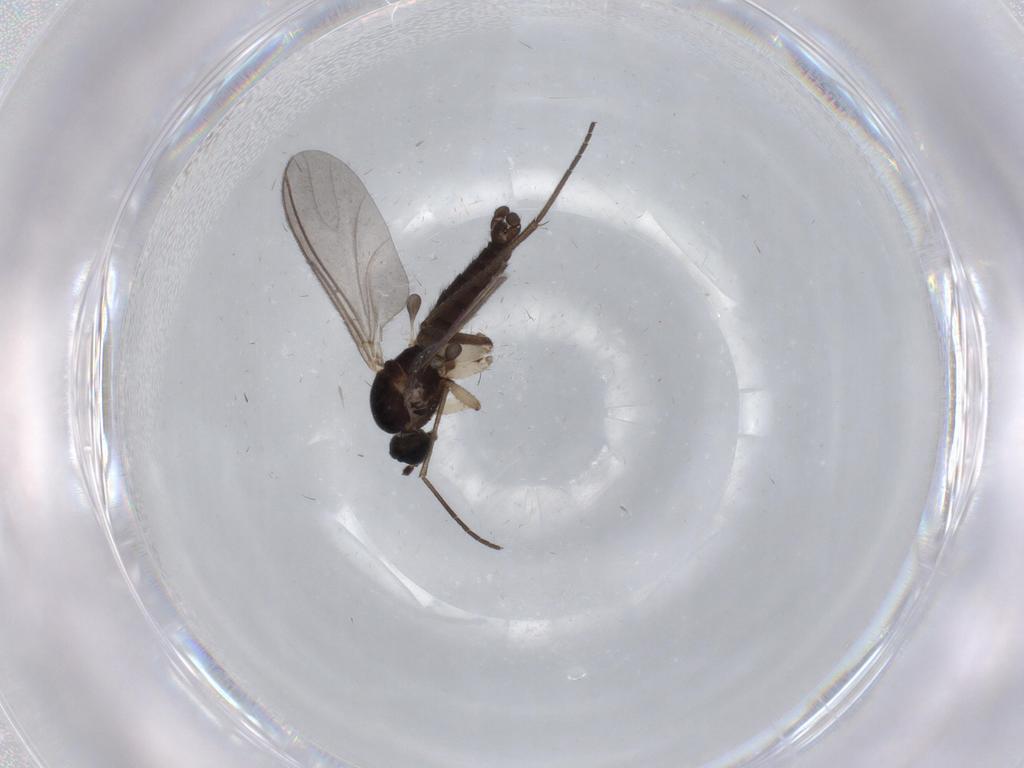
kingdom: Animalia
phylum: Arthropoda
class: Insecta
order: Diptera
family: Sciaridae
